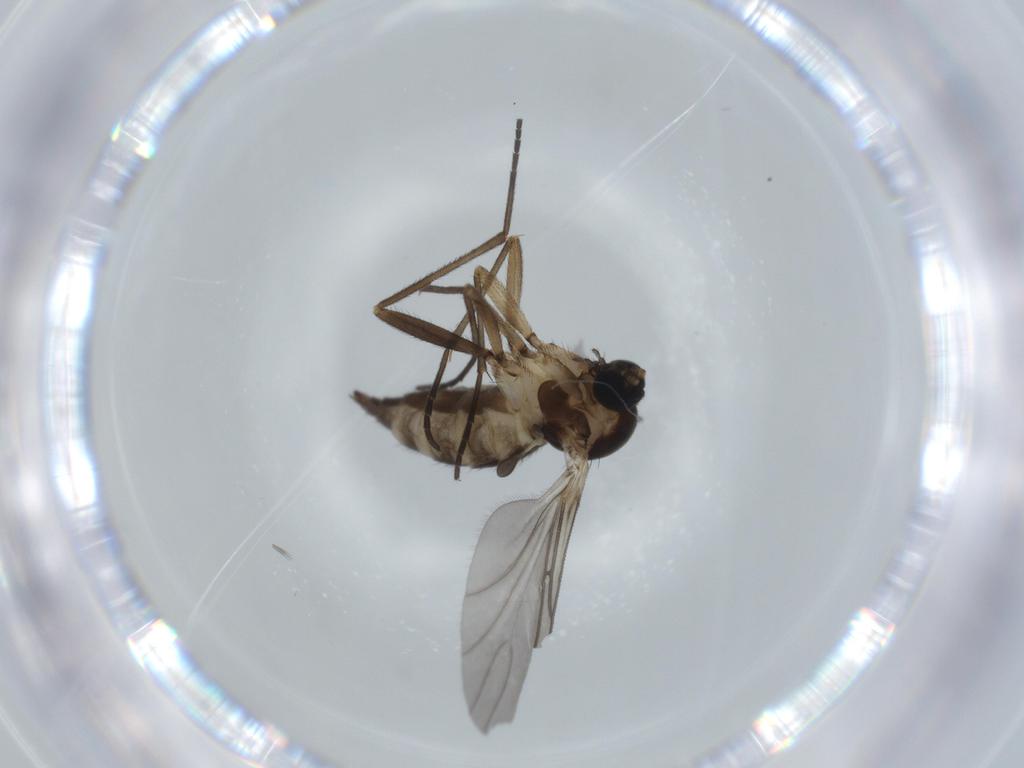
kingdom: Animalia
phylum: Arthropoda
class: Insecta
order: Diptera
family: Sciaridae
